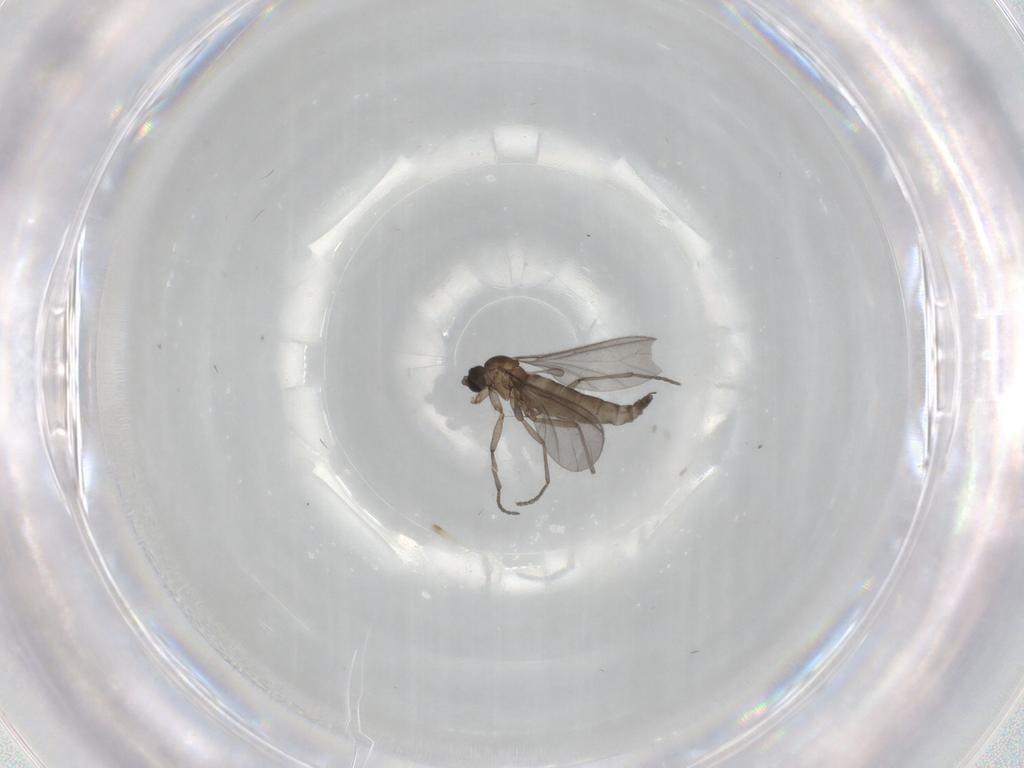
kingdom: Animalia
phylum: Arthropoda
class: Insecta
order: Diptera
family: Sciaridae
